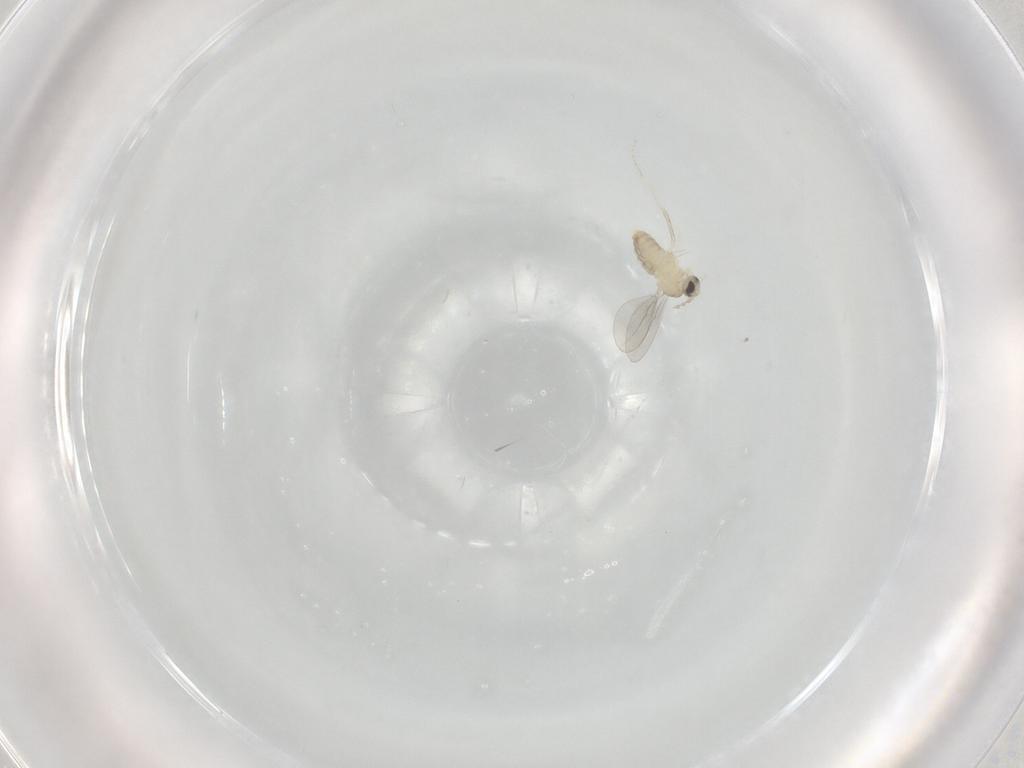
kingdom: Animalia
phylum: Arthropoda
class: Insecta
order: Diptera
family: Cecidomyiidae
